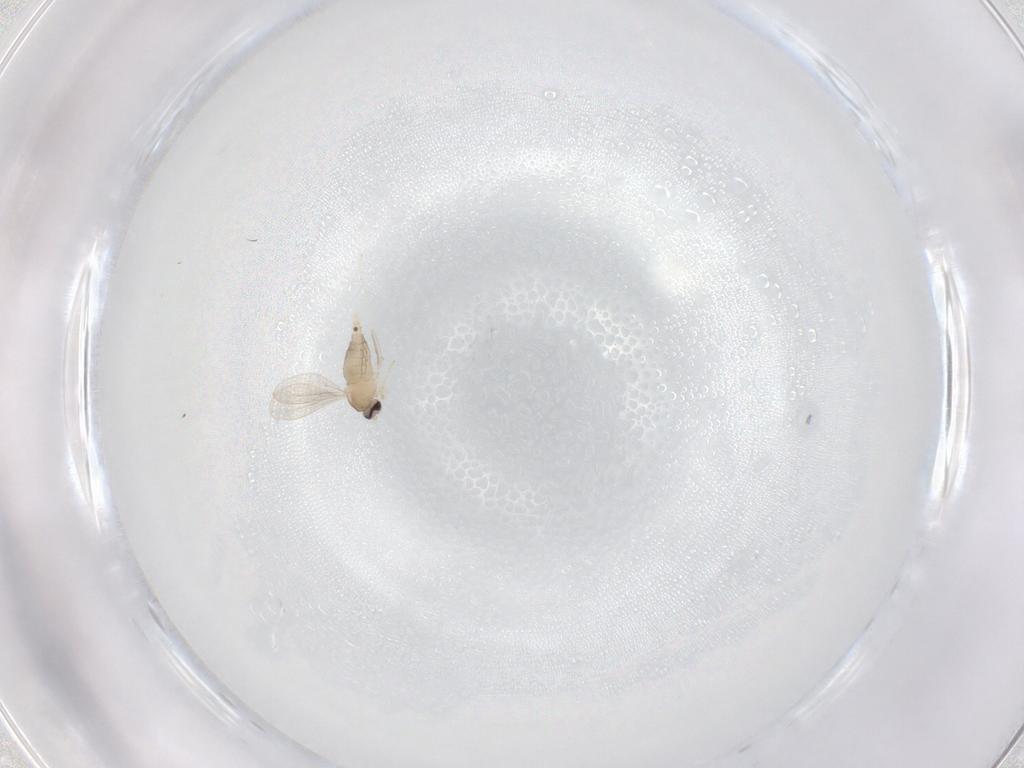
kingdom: Animalia
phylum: Arthropoda
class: Insecta
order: Diptera
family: Cecidomyiidae
